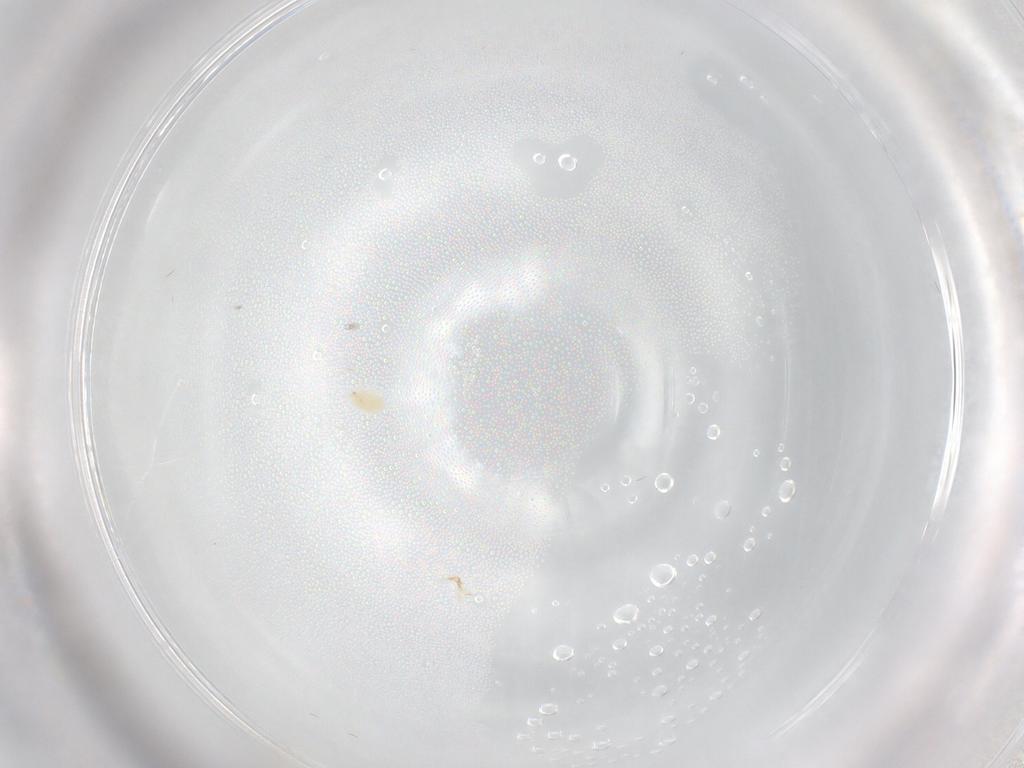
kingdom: Animalia
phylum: Arthropoda
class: Arachnida
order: Trombidiformes
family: Tetranychidae
